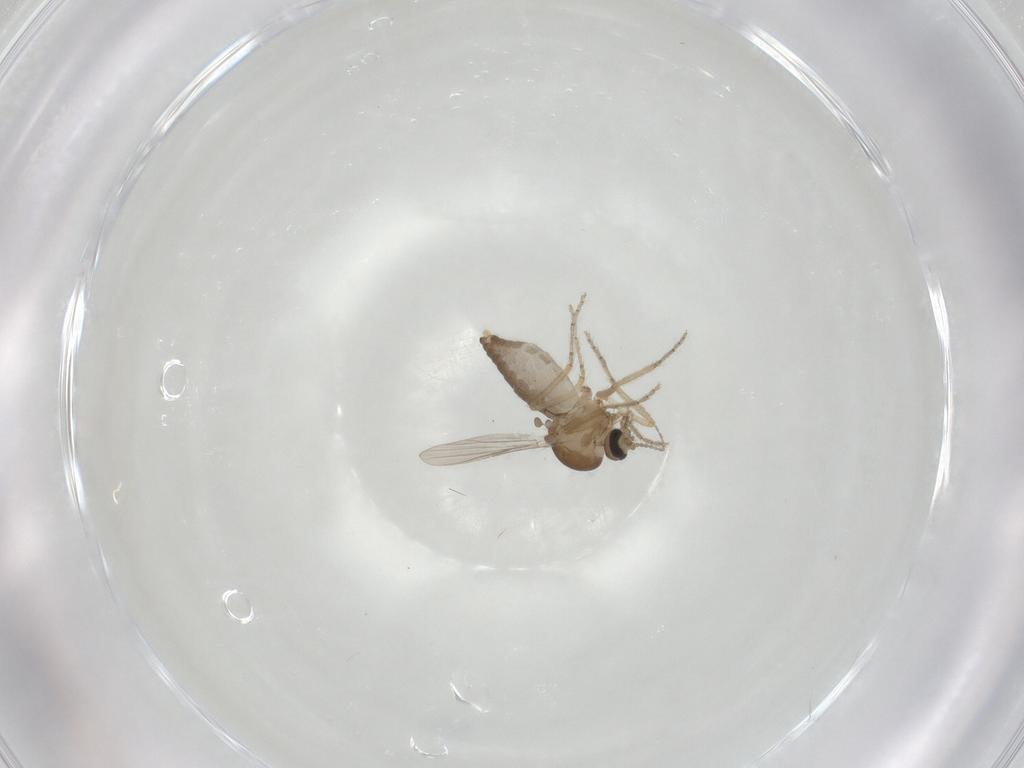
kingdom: Animalia
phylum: Arthropoda
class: Insecta
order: Diptera
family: Ceratopogonidae
